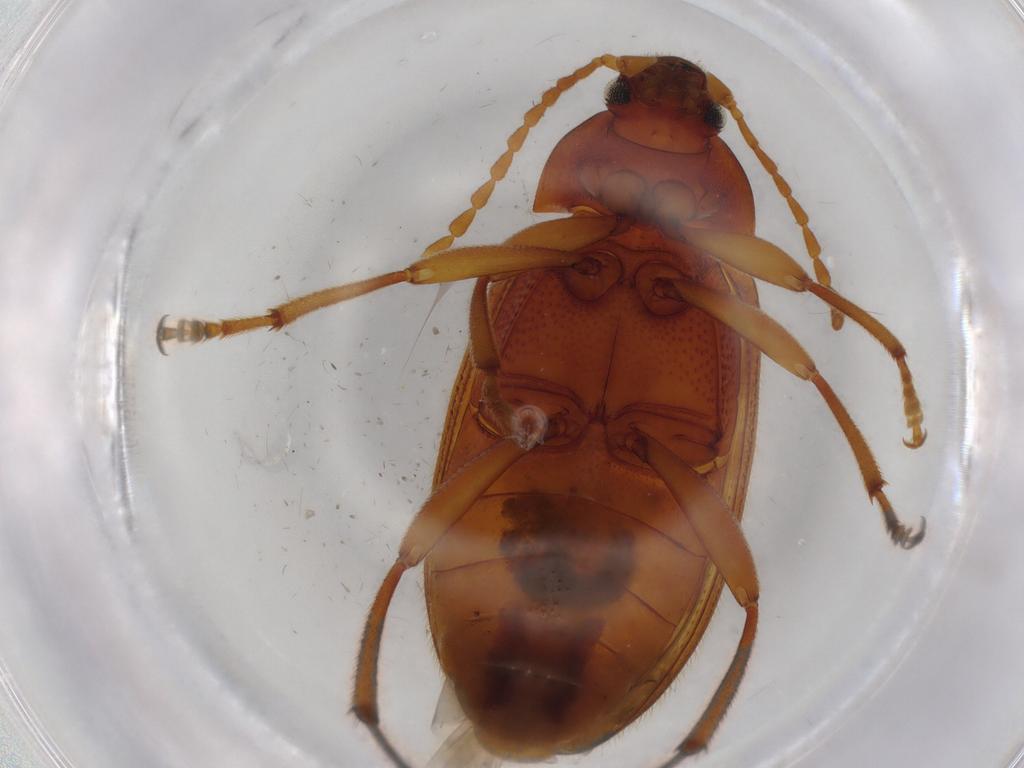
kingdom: Animalia
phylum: Arthropoda
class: Insecta
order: Coleoptera
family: Tenebrionidae
